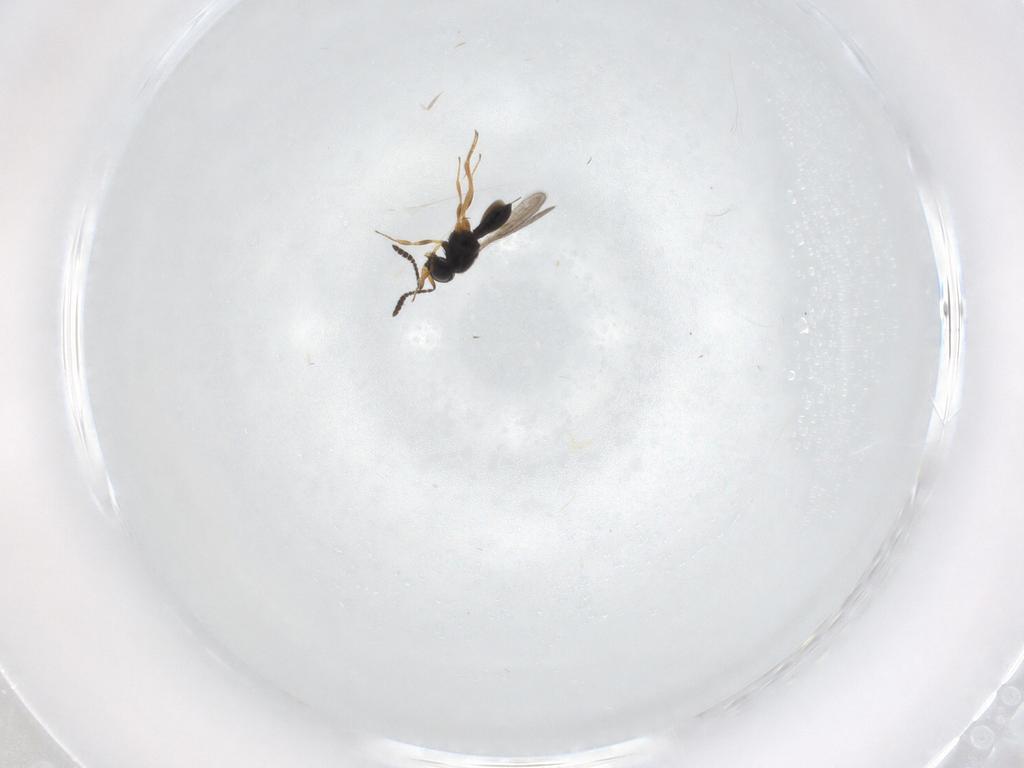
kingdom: Animalia
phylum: Arthropoda
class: Insecta
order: Hymenoptera
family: Scelionidae
